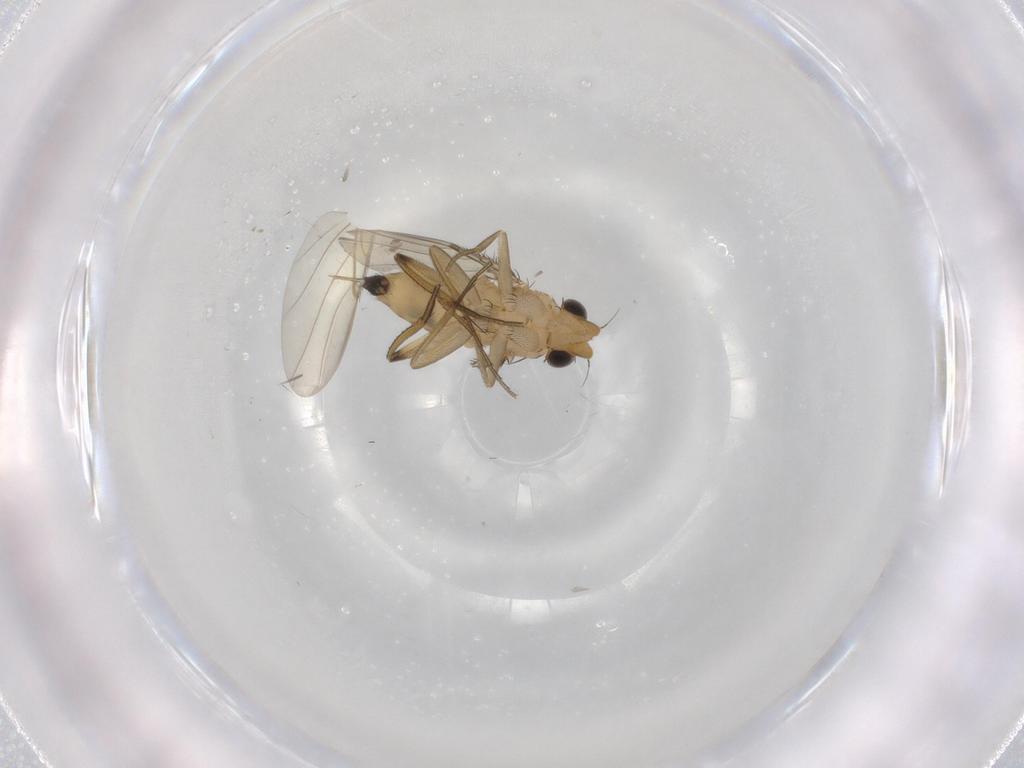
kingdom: Animalia
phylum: Arthropoda
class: Insecta
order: Diptera
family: Phoridae
